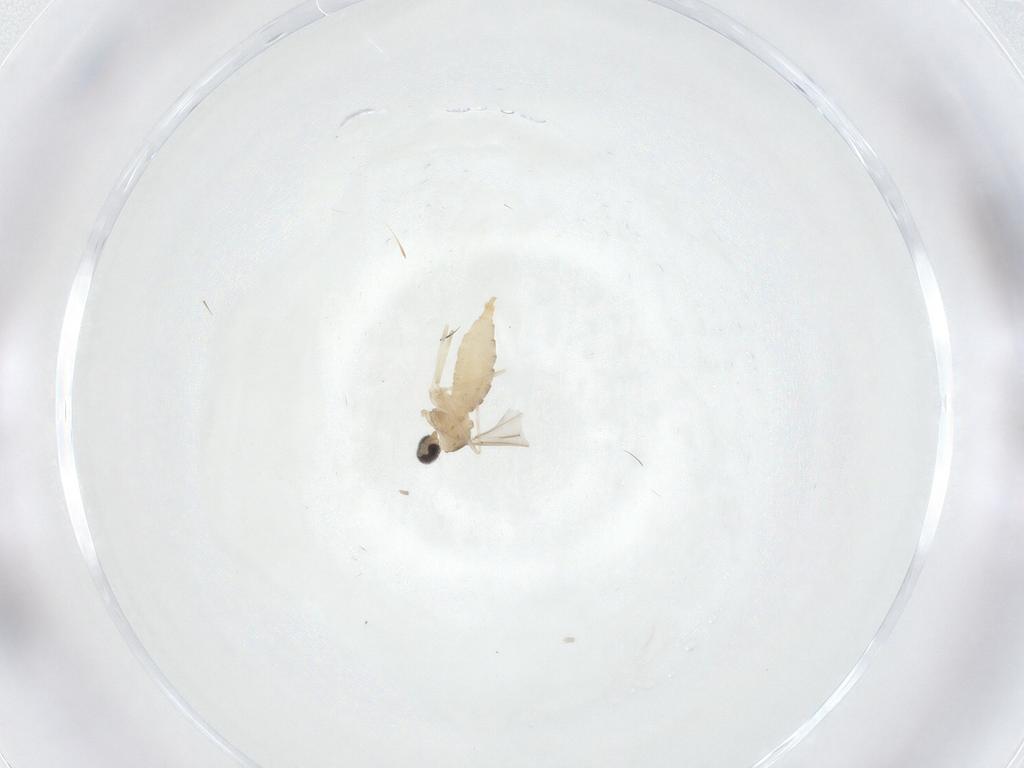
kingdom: Animalia
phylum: Arthropoda
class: Insecta
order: Diptera
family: Cecidomyiidae
